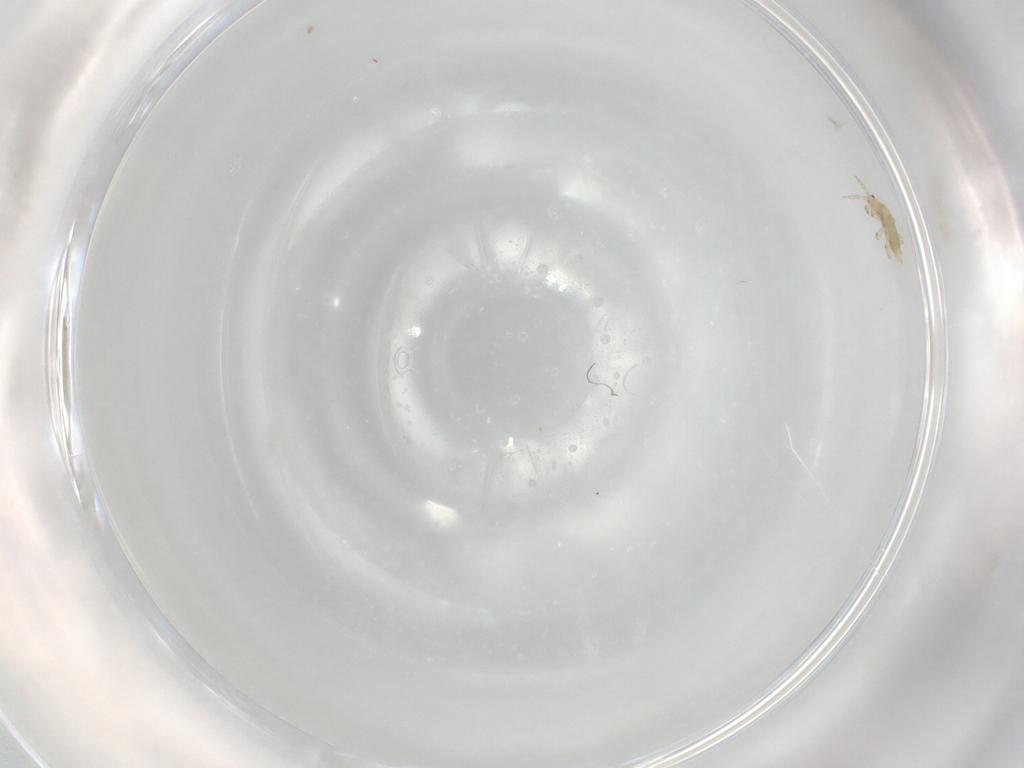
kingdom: Animalia
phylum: Arthropoda
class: Insecta
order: Thysanoptera
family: Thripidae
